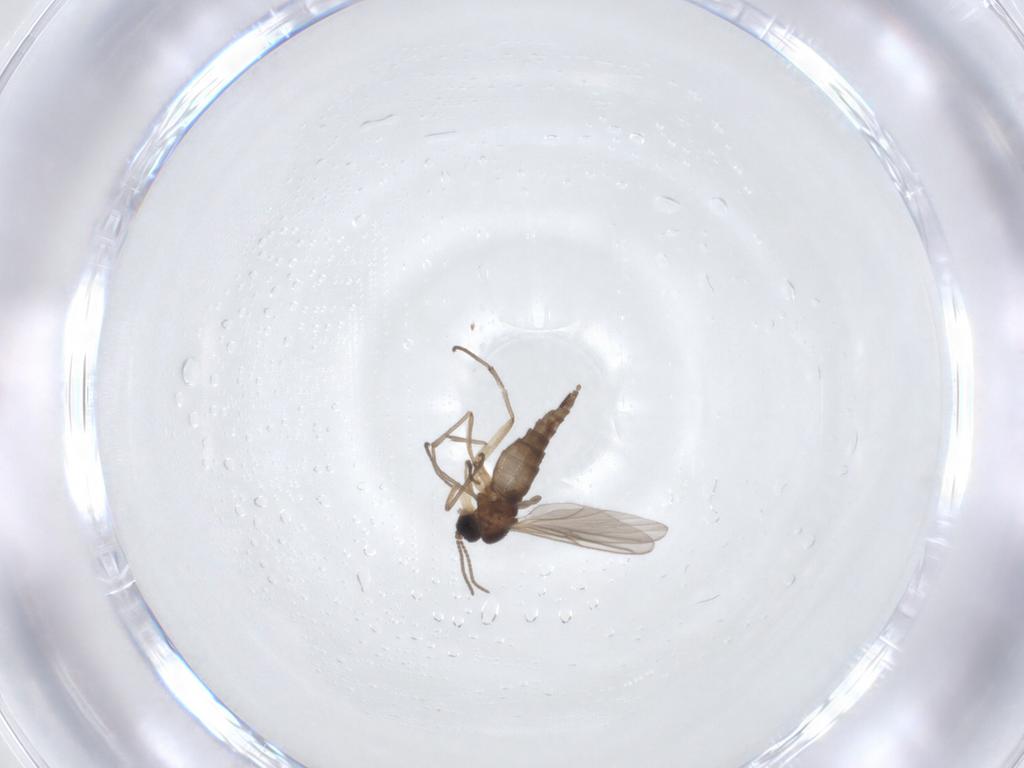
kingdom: Animalia
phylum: Arthropoda
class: Insecta
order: Diptera
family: Sciaridae
